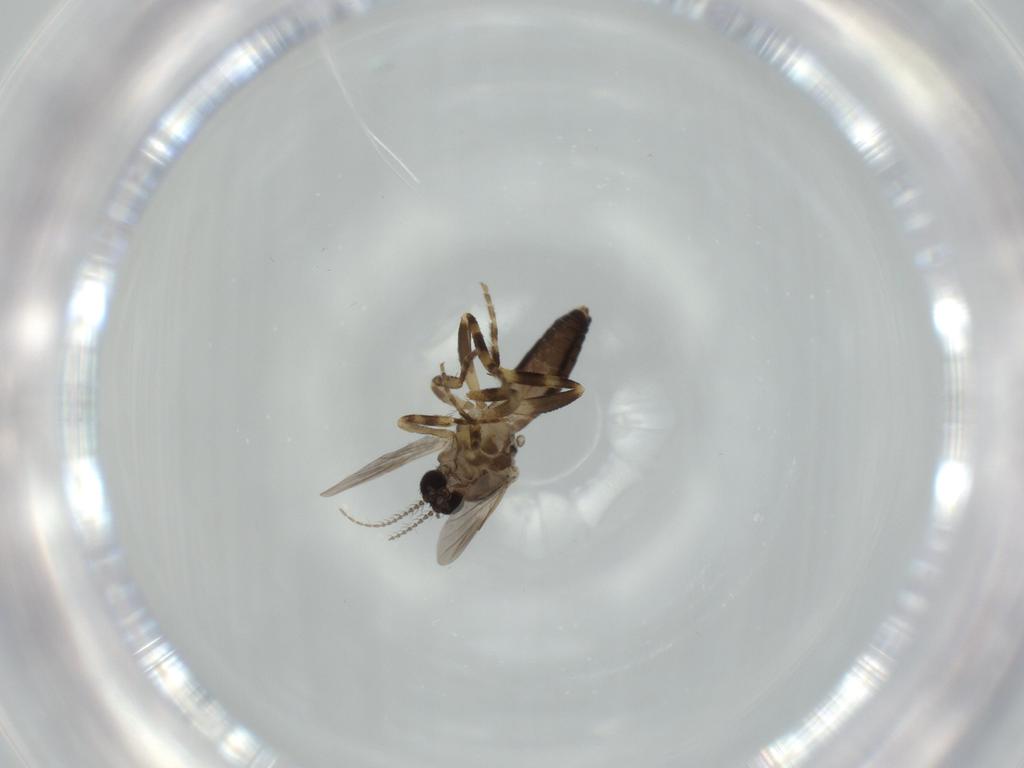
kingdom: Animalia
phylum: Arthropoda
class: Insecta
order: Diptera
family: Ceratopogonidae
